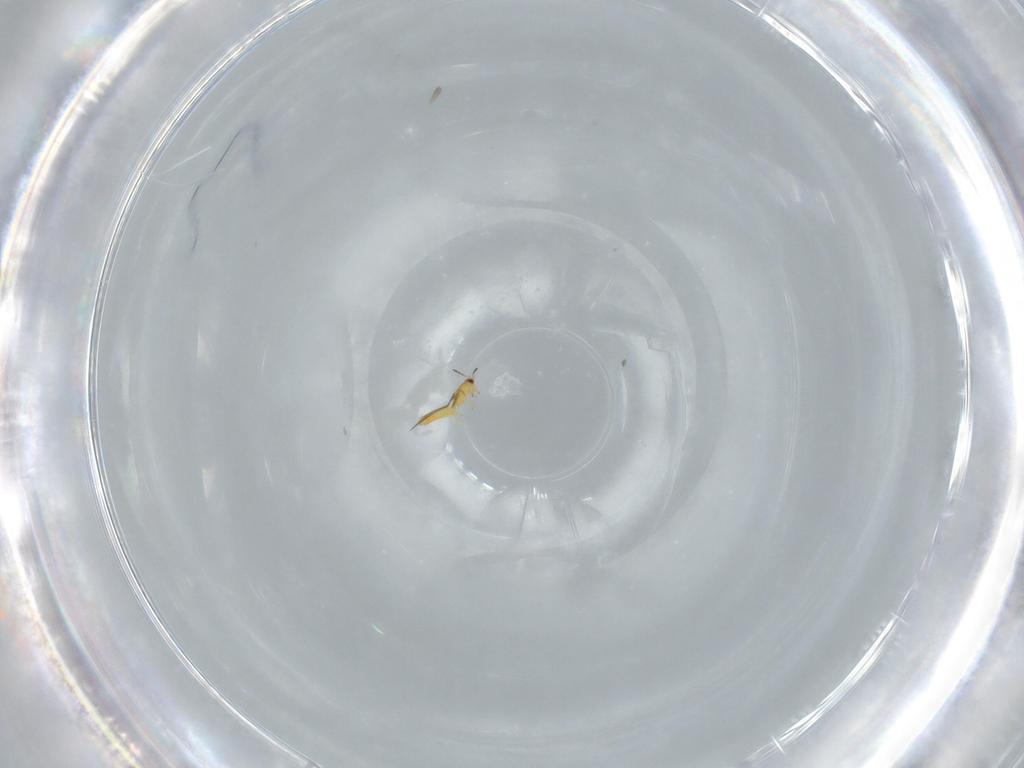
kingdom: Animalia
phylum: Arthropoda
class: Insecta
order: Thysanoptera
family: Thripidae
